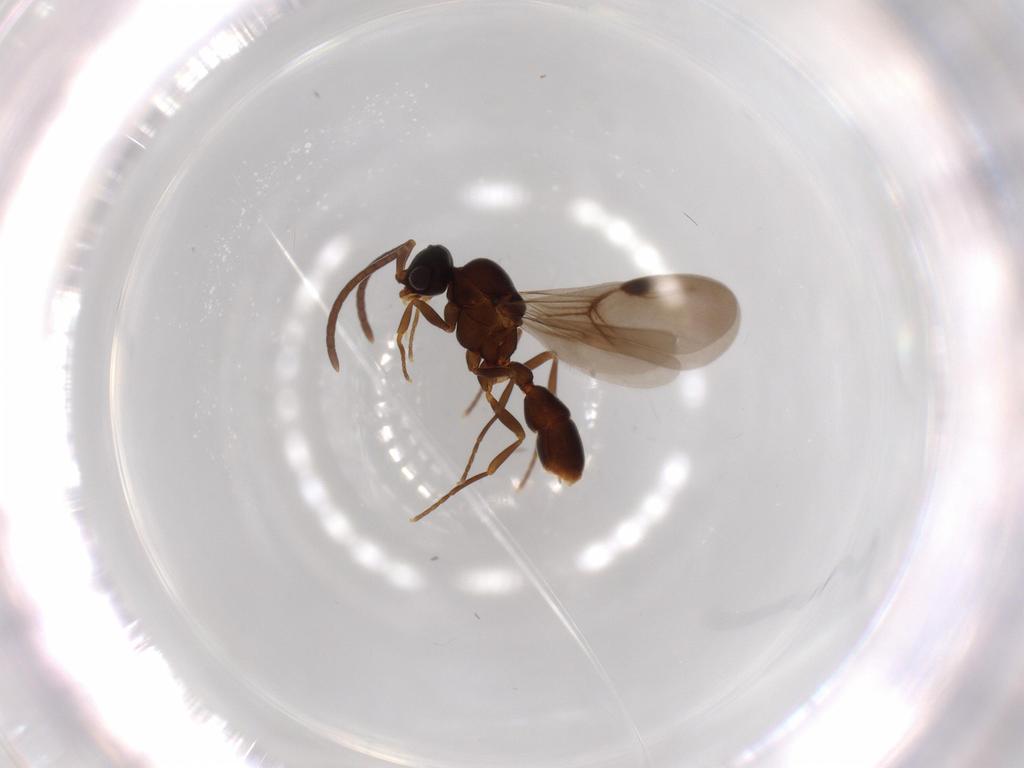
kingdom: Animalia
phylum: Arthropoda
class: Insecta
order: Hymenoptera
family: Formicidae
